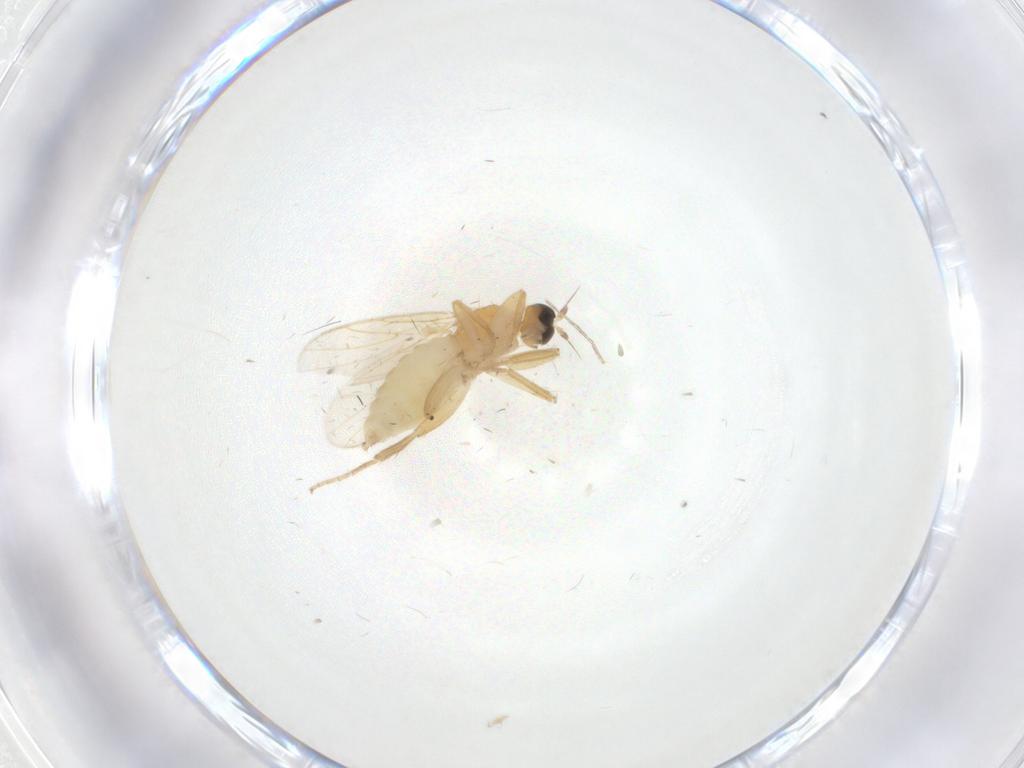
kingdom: Animalia
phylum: Arthropoda
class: Insecta
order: Diptera
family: Hybotidae
